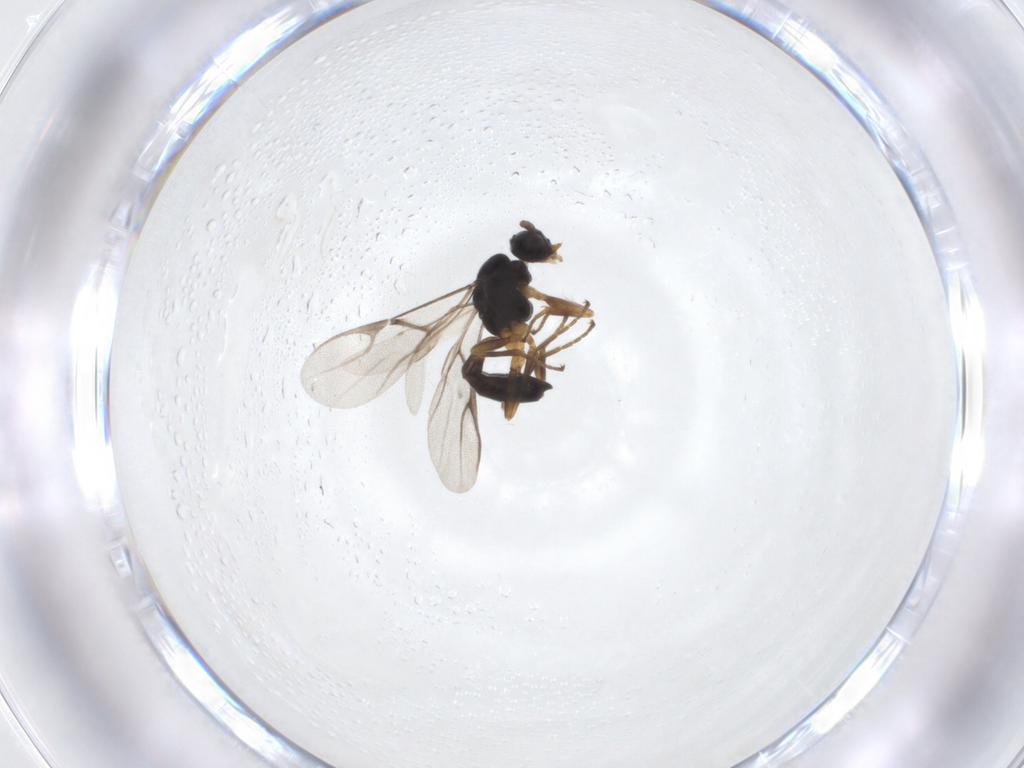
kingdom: Animalia
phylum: Arthropoda
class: Insecta
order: Hymenoptera
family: Braconidae
